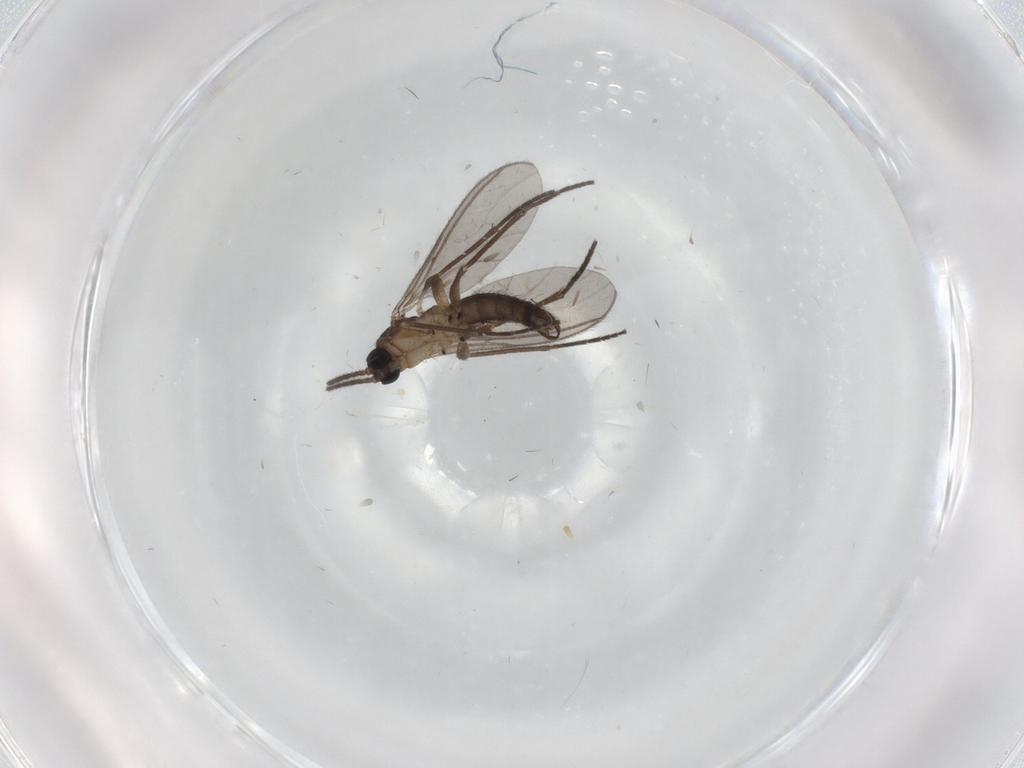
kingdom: Animalia
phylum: Arthropoda
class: Insecta
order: Diptera
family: Sciaridae
